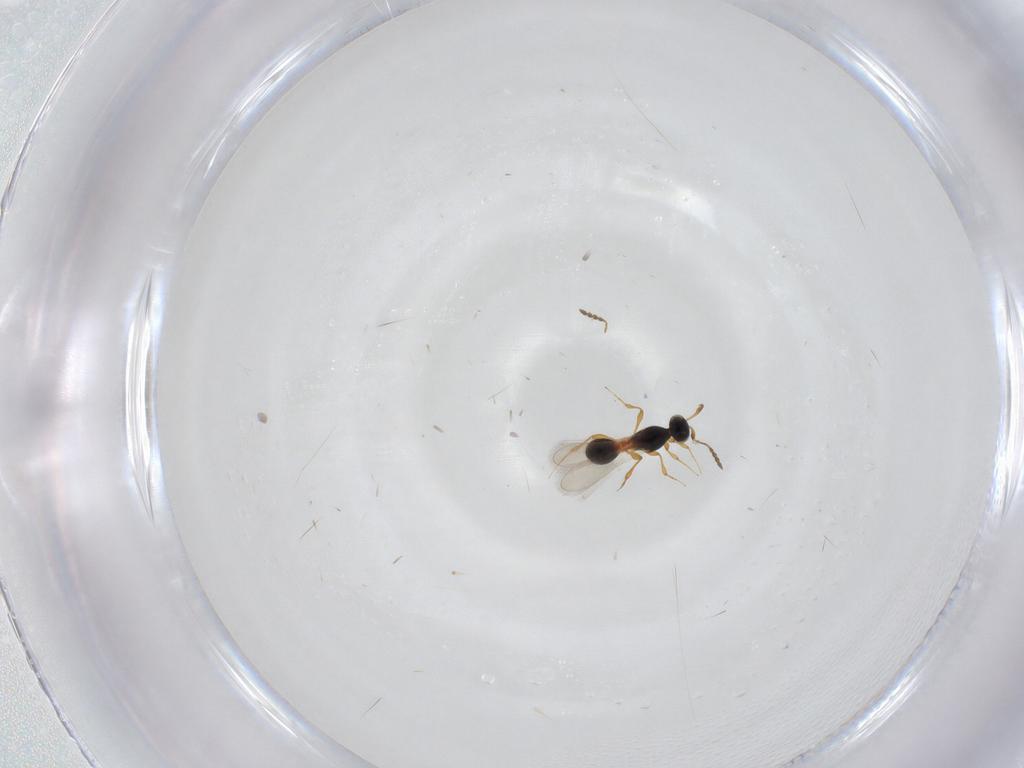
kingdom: Animalia
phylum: Arthropoda
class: Insecta
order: Hymenoptera
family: Platygastridae
